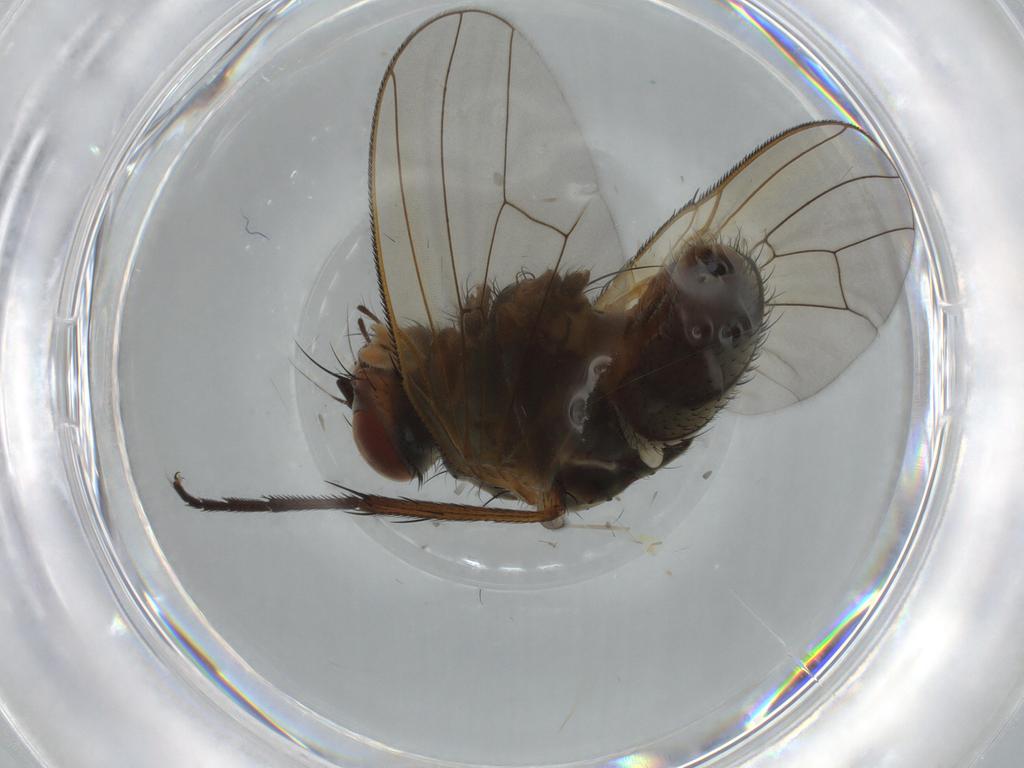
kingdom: Animalia
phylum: Arthropoda
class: Insecta
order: Diptera
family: Anthomyiidae
